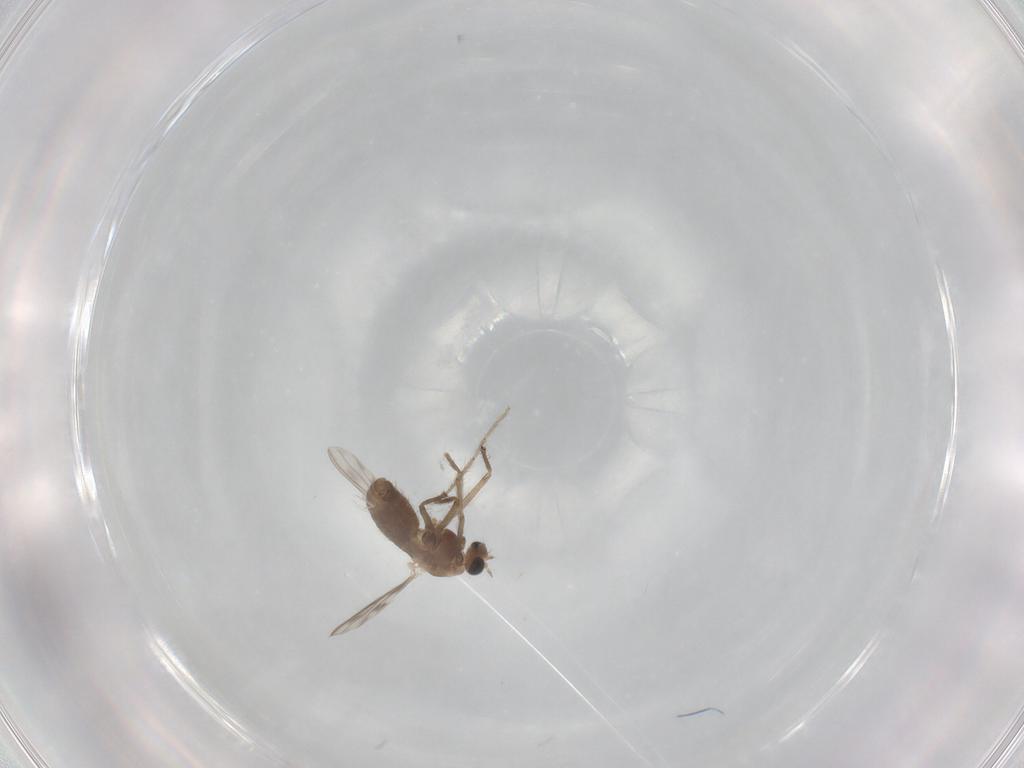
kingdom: Animalia
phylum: Arthropoda
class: Insecta
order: Diptera
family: Chironomidae
